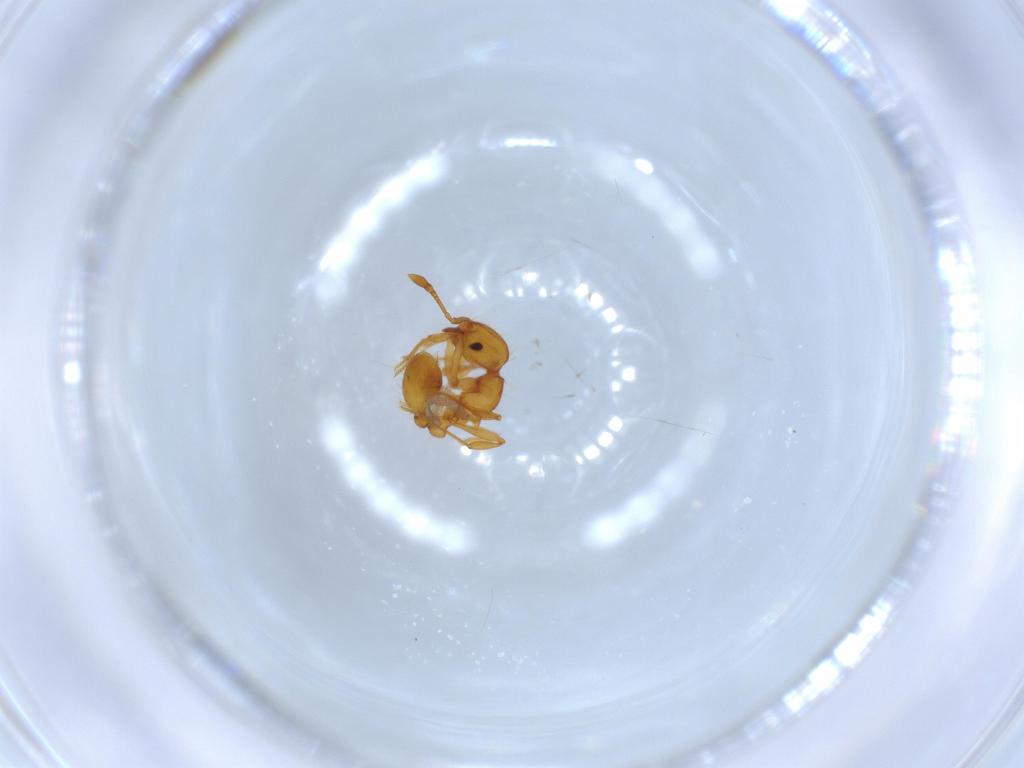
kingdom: Animalia
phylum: Arthropoda
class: Insecta
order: Hymenoptera
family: Formicidae
